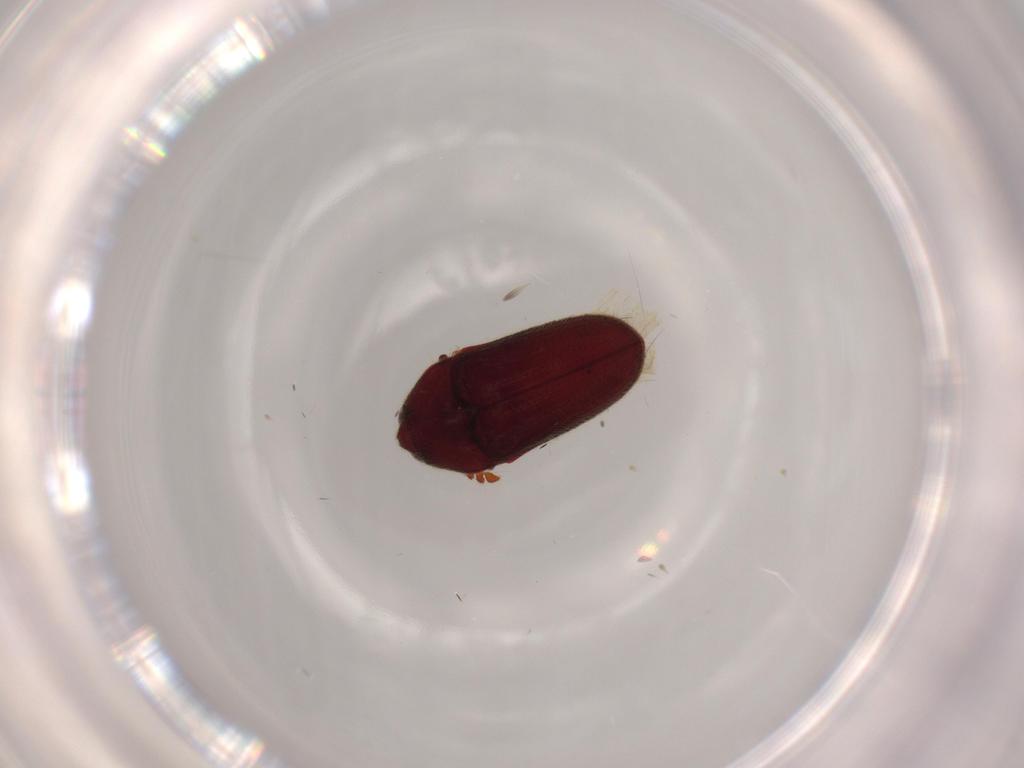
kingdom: Animalia
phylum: Arthropoda
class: Insecta
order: Coleoptera
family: Throscidae
